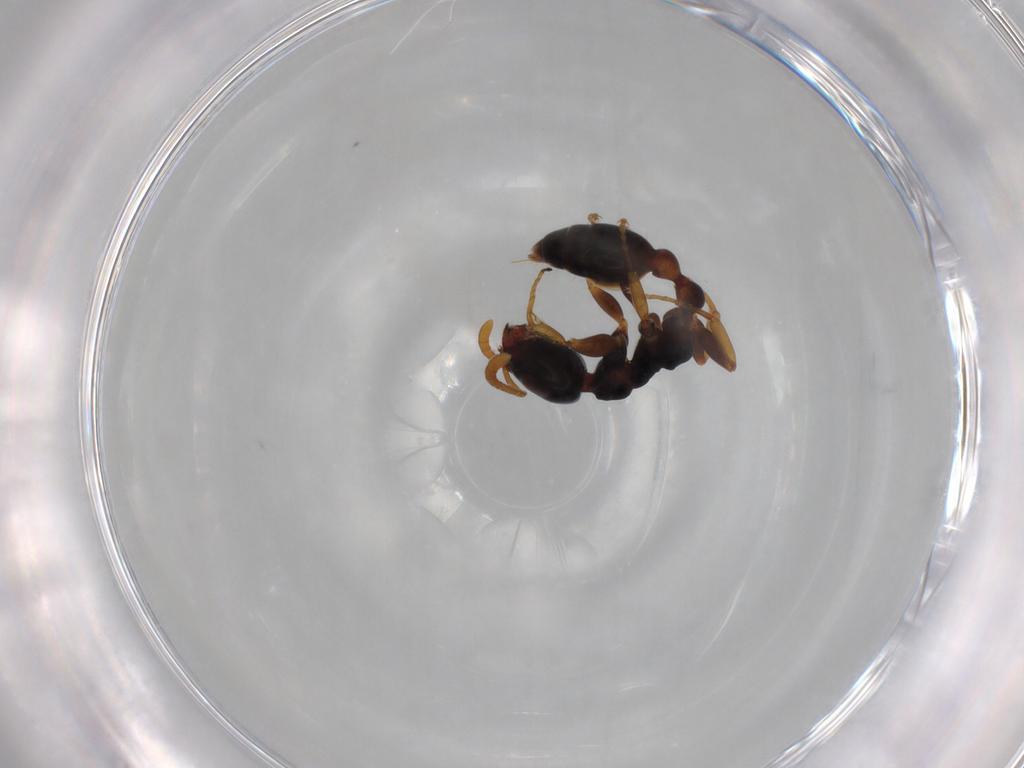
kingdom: Animalia
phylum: Arthropoda
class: Insecta
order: Hymenoptera
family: Formicidae
